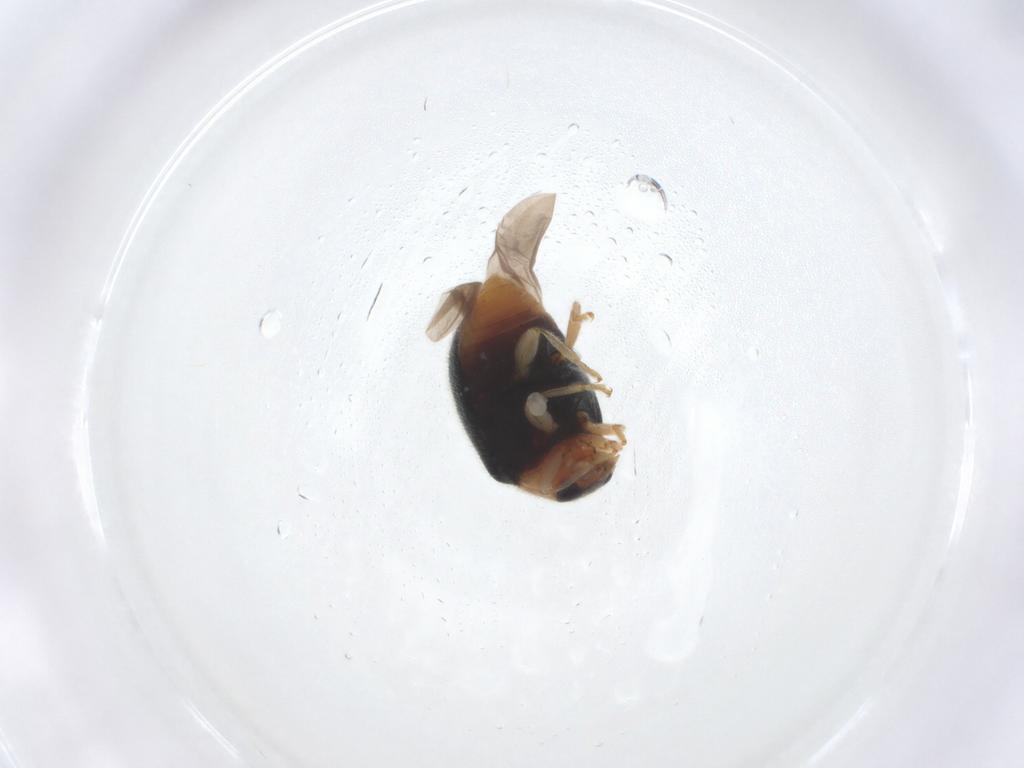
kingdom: Animalia
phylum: Arthropoda
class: Insecta
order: Coleoptera
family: Coccinellidae
